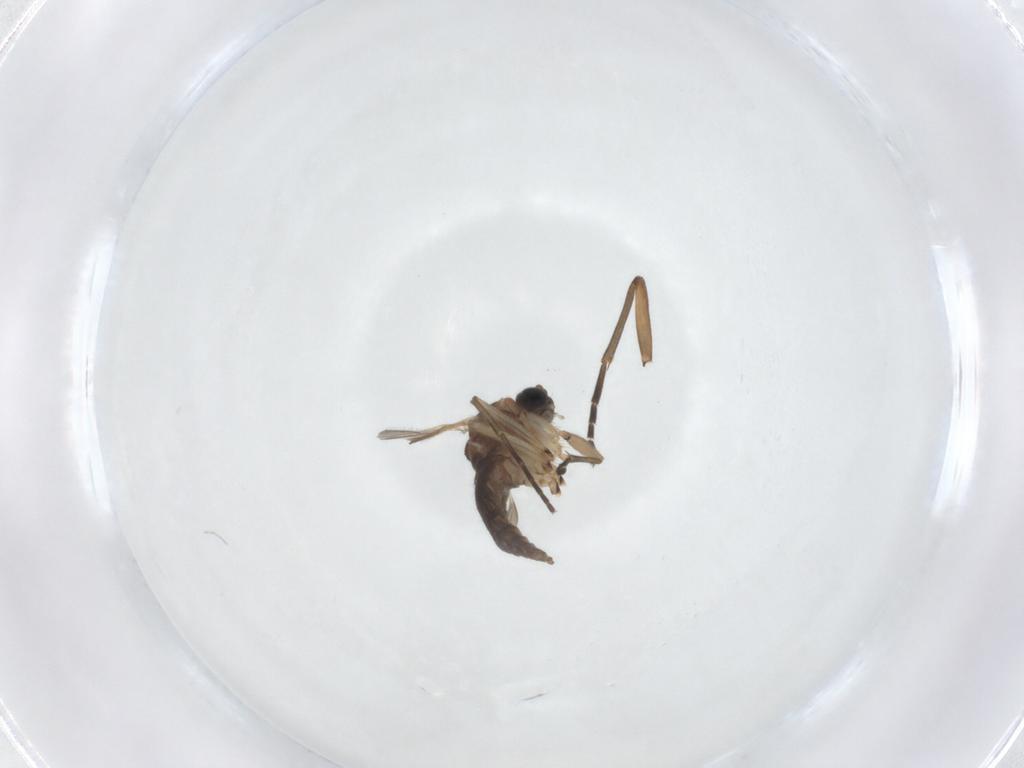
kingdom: Animalia
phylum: Arthropoda
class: Insecta
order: Diptera
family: Sciaridae
